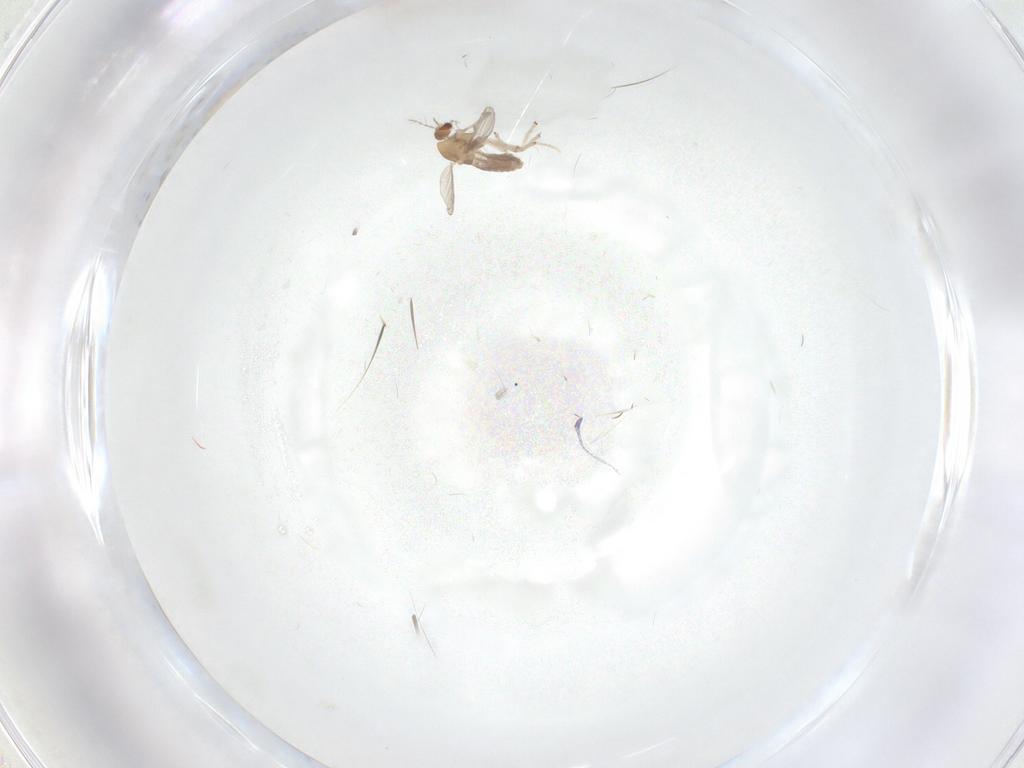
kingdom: Animalia
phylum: Arthropoda
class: Insecta
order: Diptera
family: Chironomidae
